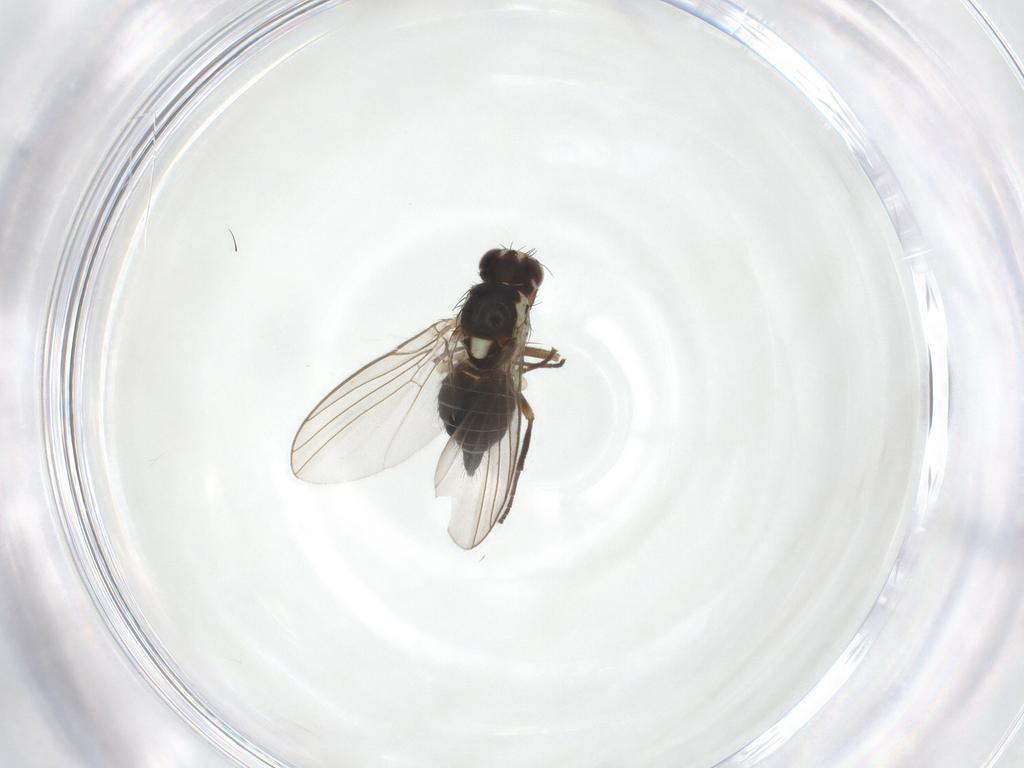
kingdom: Animalia
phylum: Arthropoda
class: Insecta
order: Diptera
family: Agromyzidae
